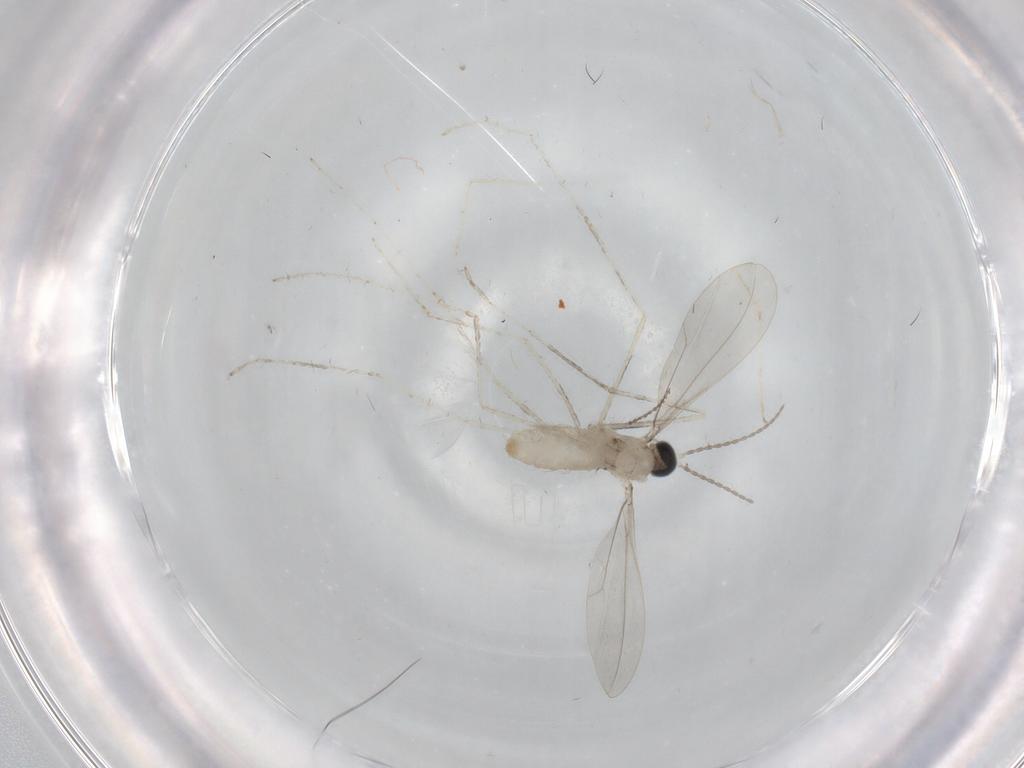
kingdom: Animalia
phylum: Arthropoda
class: Insecta
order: Diptera
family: Cecidomyiidae
